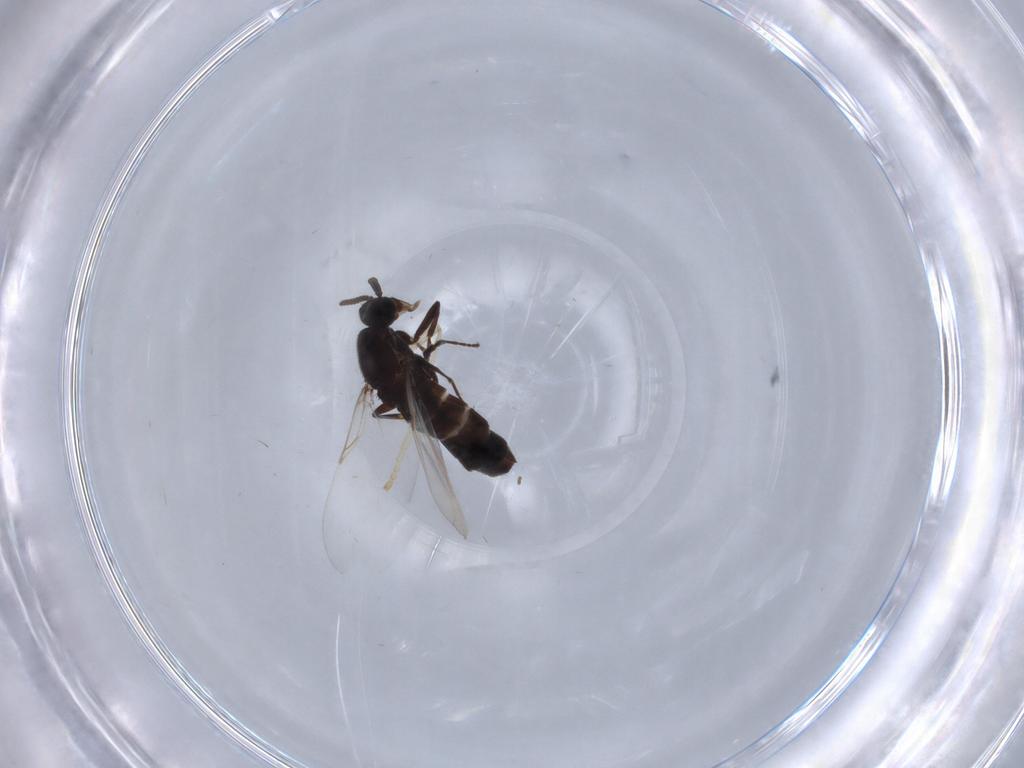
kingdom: Animalia
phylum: Arthropoda
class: Insecta
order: Diptera
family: Scatopsidae
